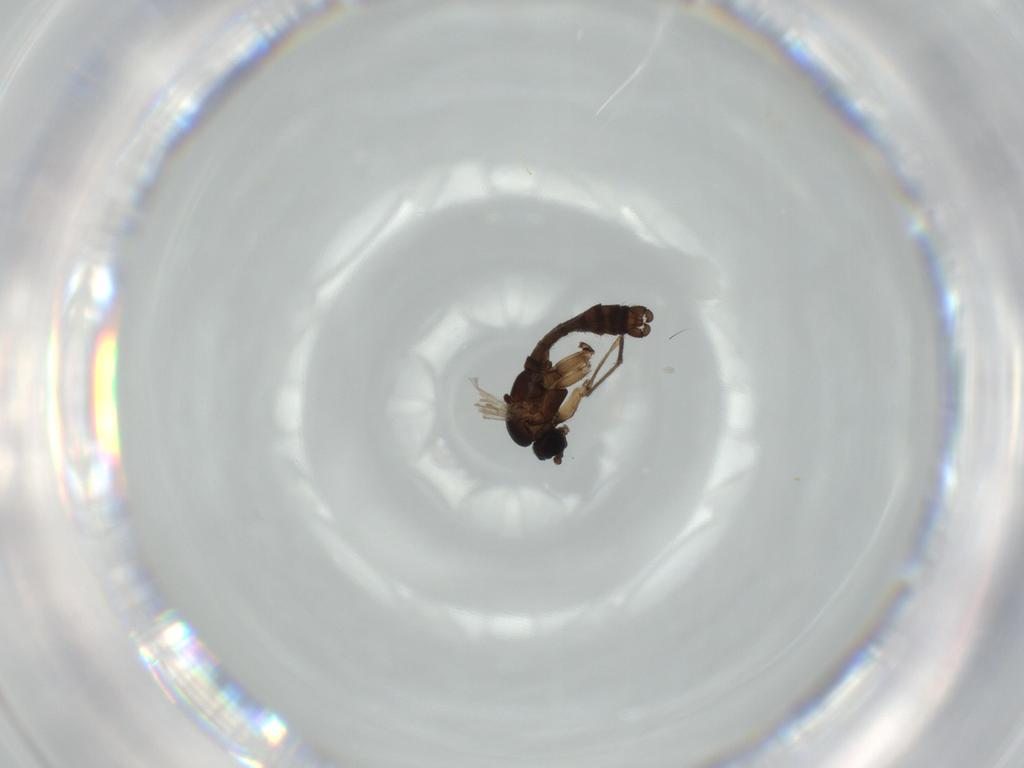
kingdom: Animalia
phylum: Arthropoda
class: Insecta
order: Diptera
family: Sciaridae
